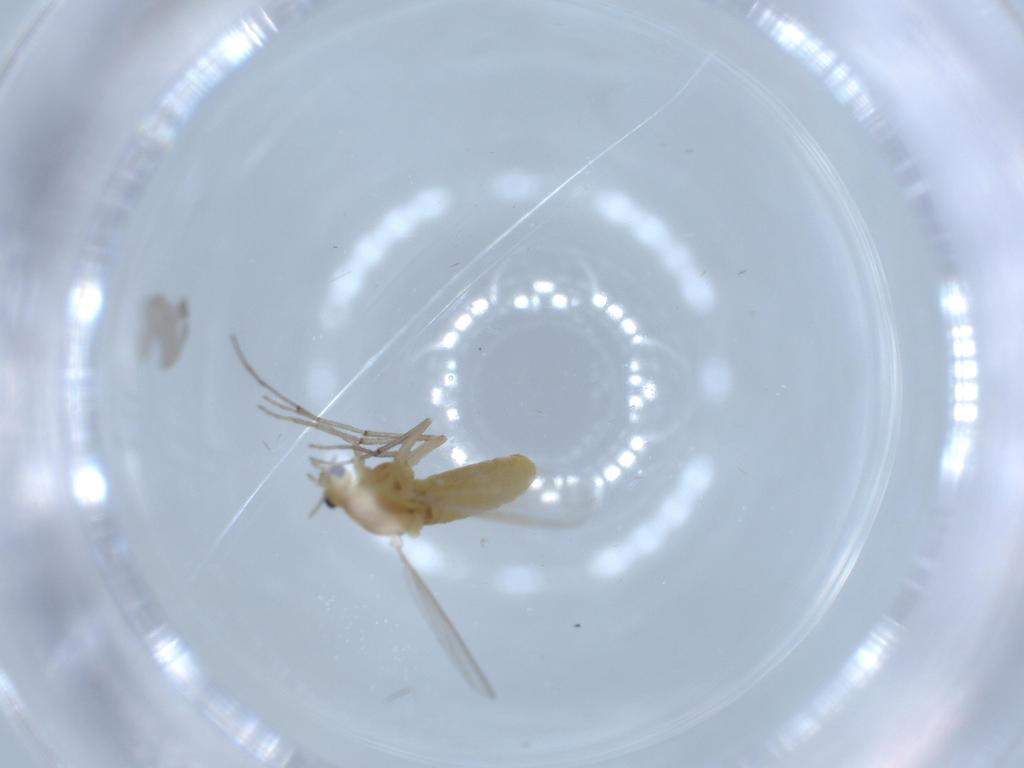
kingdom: Animalia
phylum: Arthropoda
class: Insecta
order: Diptera
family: Chironomidae
